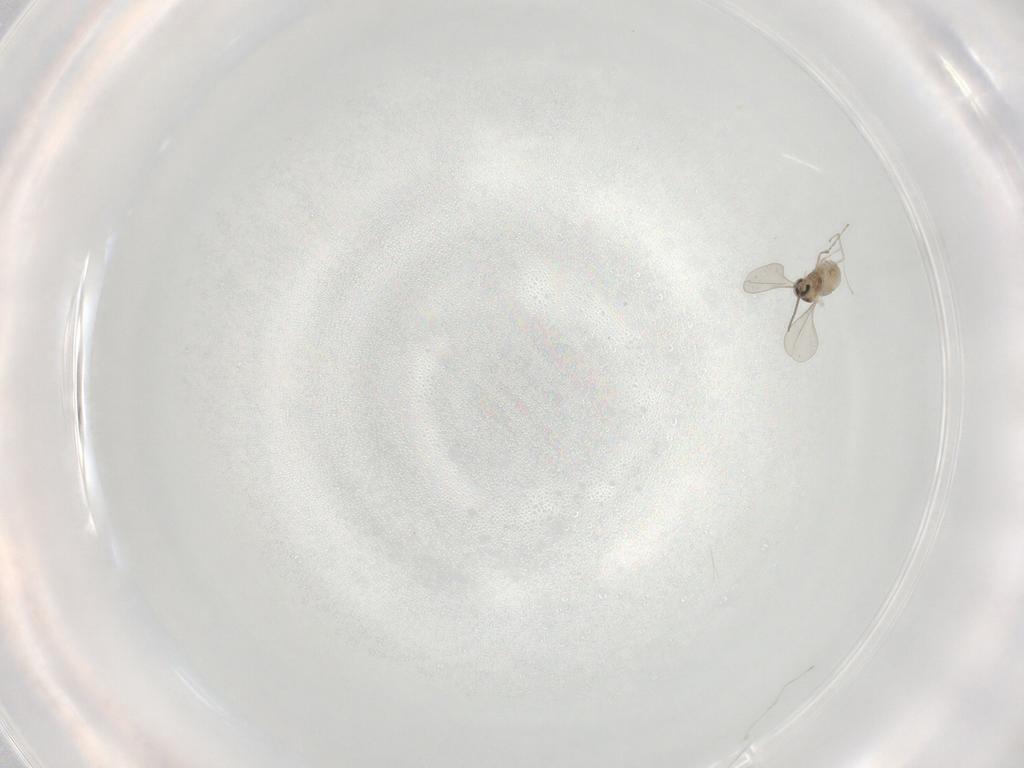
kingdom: Animalia
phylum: Arthropoda
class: Insecta
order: Diptera
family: Cecidomyiidae
